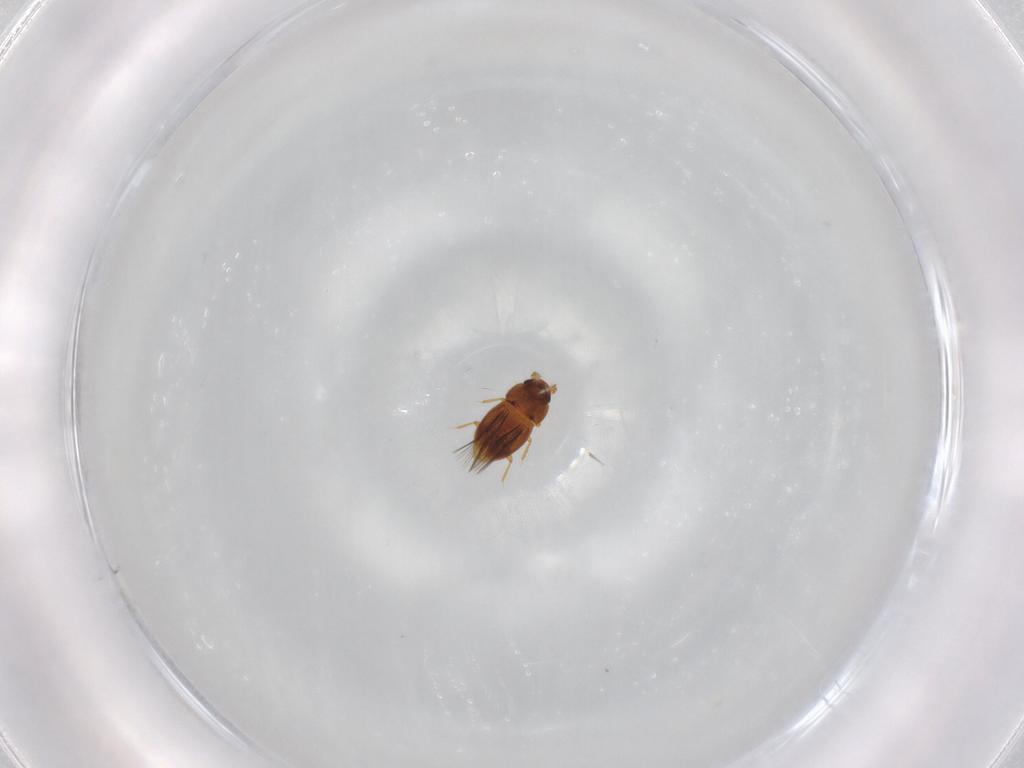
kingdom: Animalia
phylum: Arthropoda
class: Insecta
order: Coleoptera
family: Ptiliidae
